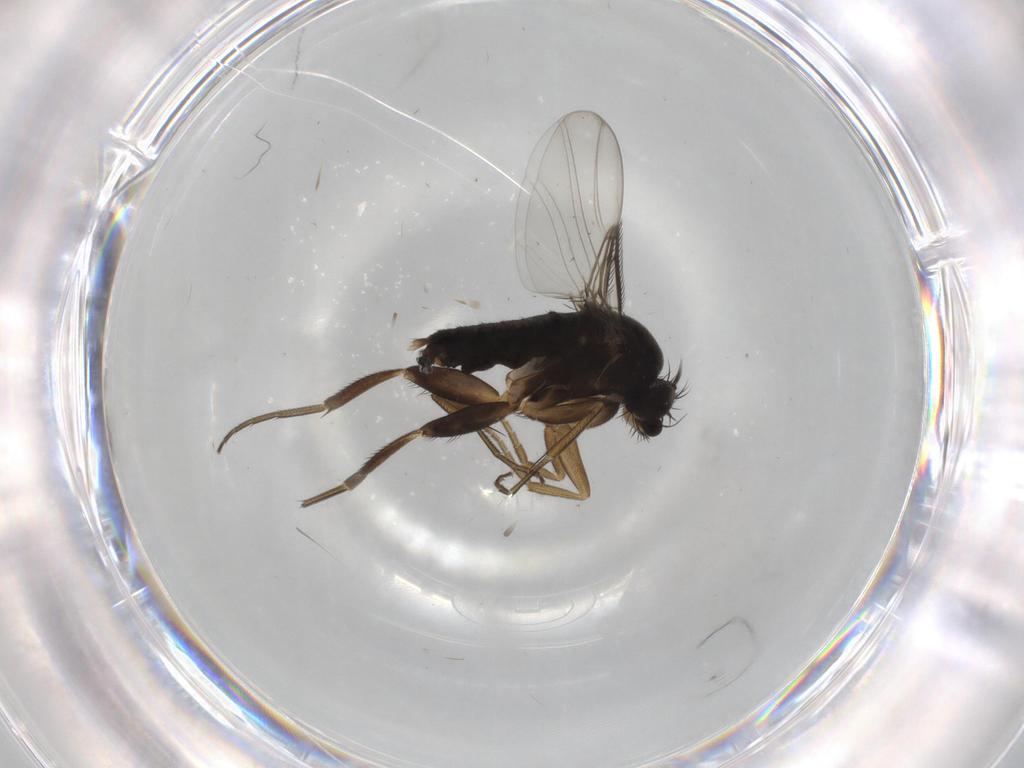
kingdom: Animalia
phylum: Arthropoda
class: Insecta
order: Diptera
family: Phoridae
